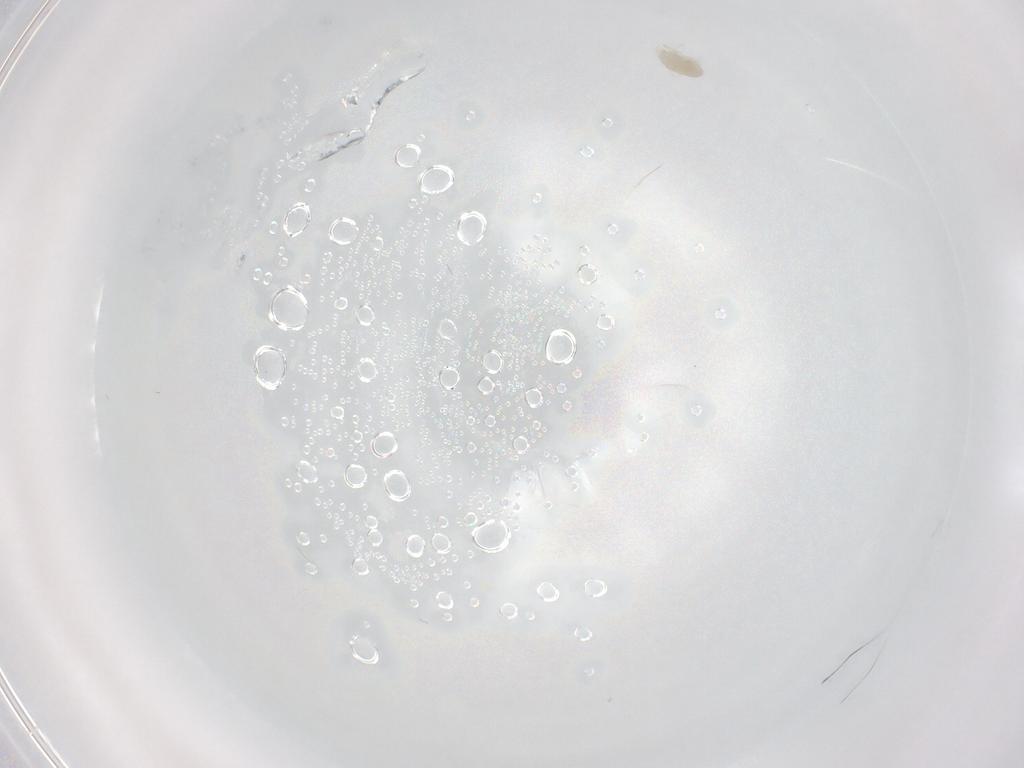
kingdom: Animalia
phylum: Arthropoda
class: Arachnida
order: Trombidiformes
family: Eupodidae
